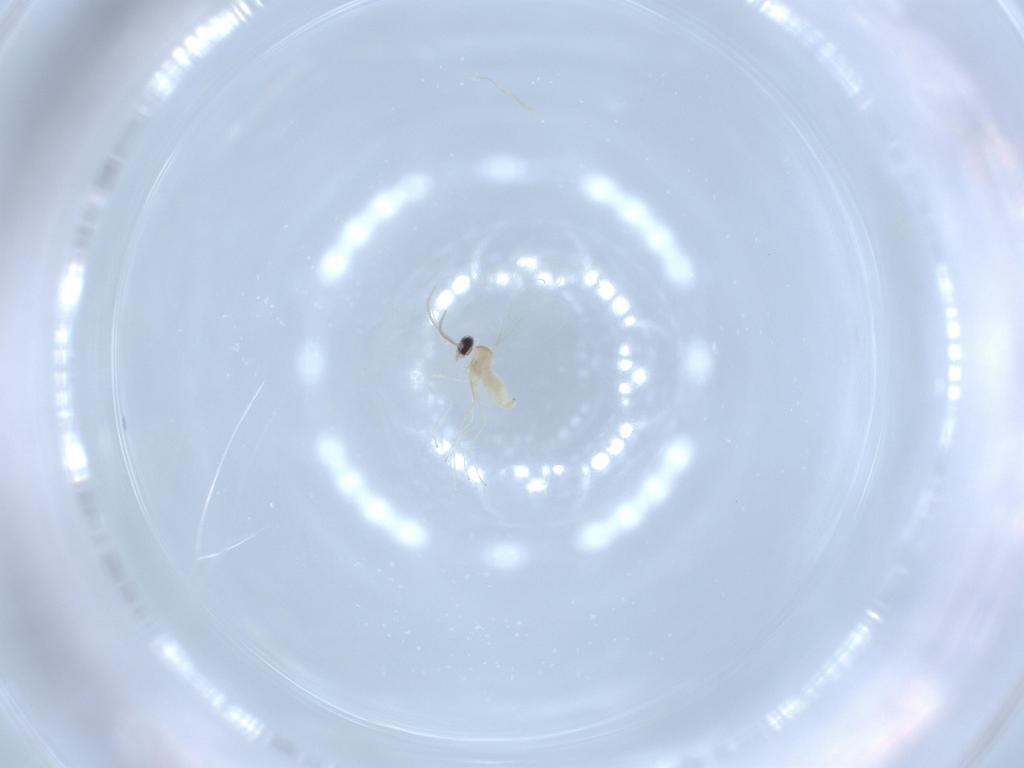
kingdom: Animalia
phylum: Arthropoda
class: Insecta
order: Diptera
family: Cecidomyiidae
